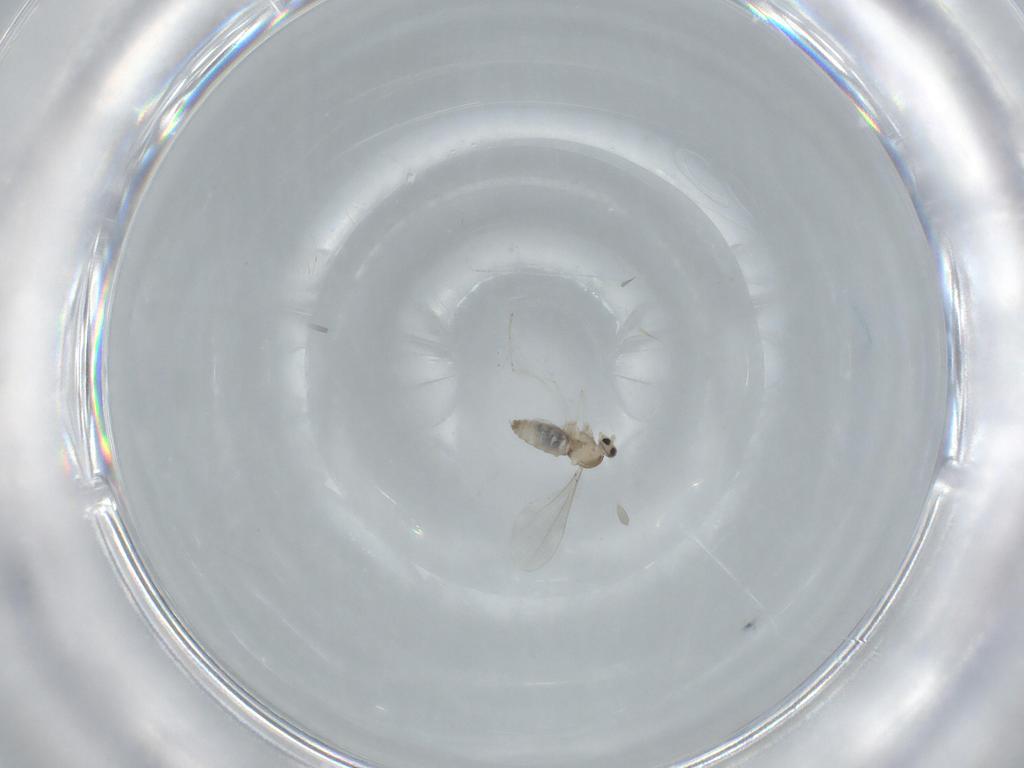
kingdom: Animalia
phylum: Arthropoda
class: Insecta
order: Diptera
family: Cecidomyiidae
